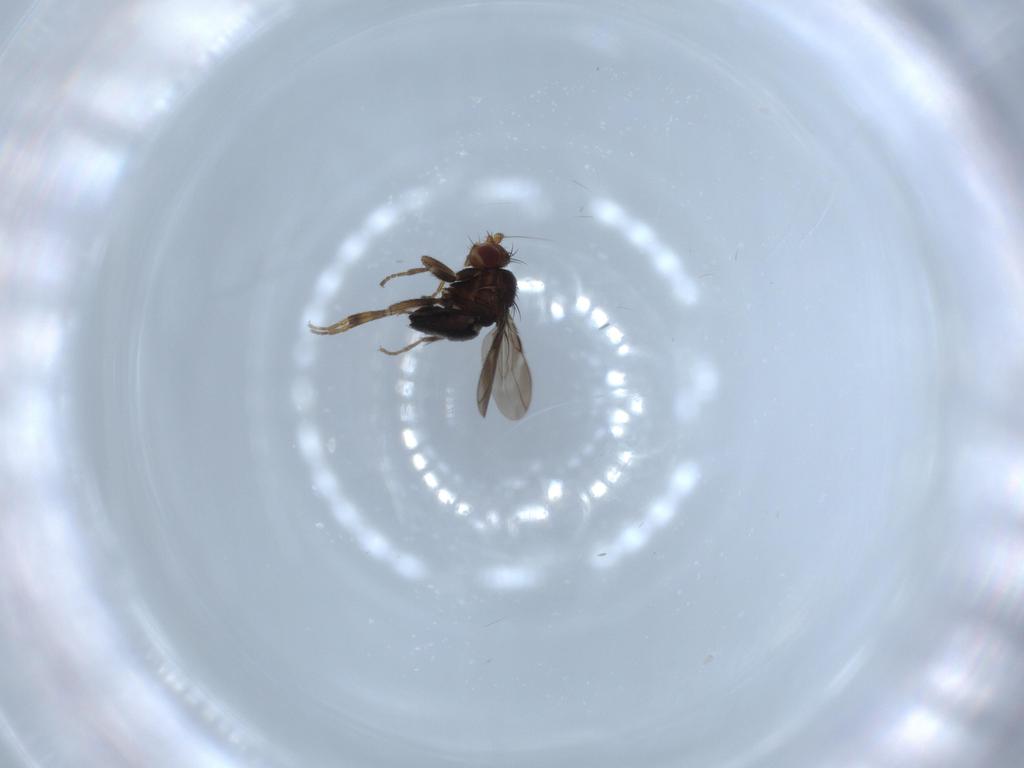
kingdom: Animalia
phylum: Arthropoda
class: Insecta
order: Diptera
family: Sphaeroceridae
